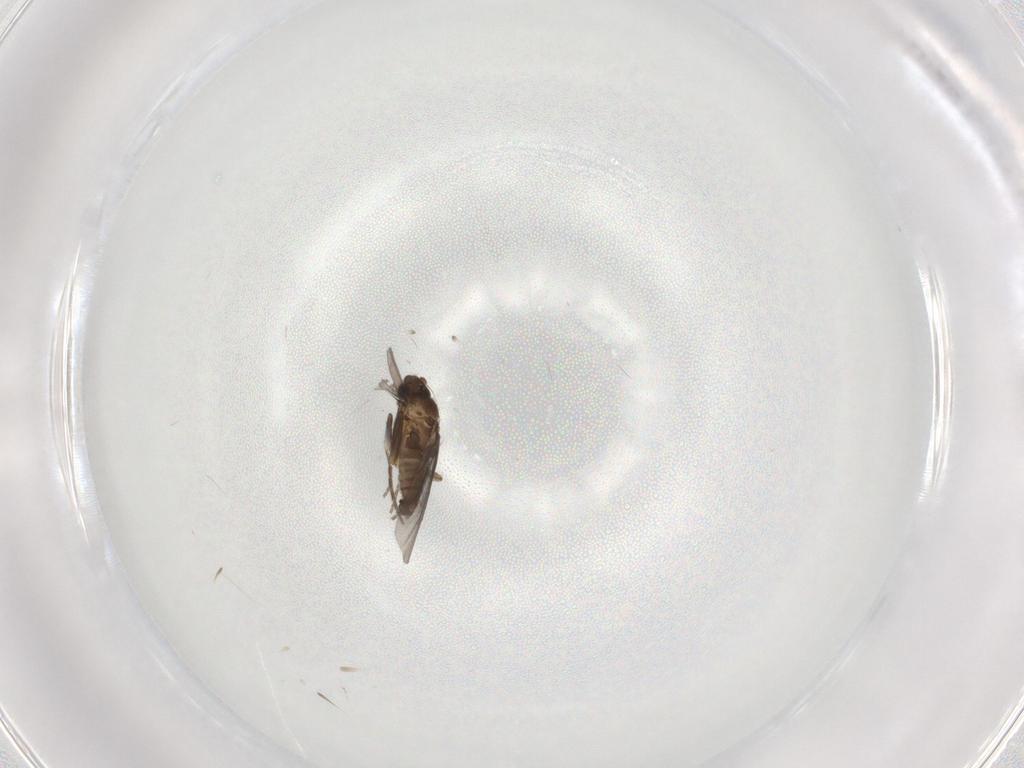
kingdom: Animalia
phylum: Arthropoda
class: Insecta
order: Diptera
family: Phoridae
